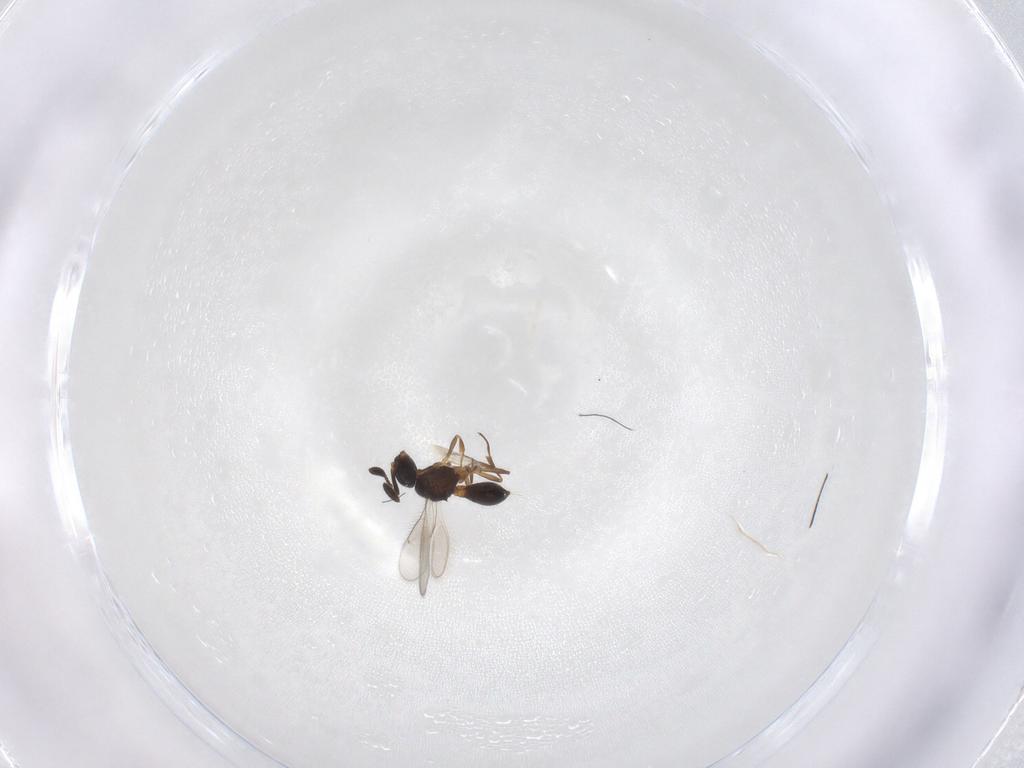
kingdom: Animalia
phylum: Arthropoda
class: Insecta
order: Hymenoptera
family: Scelionidae
